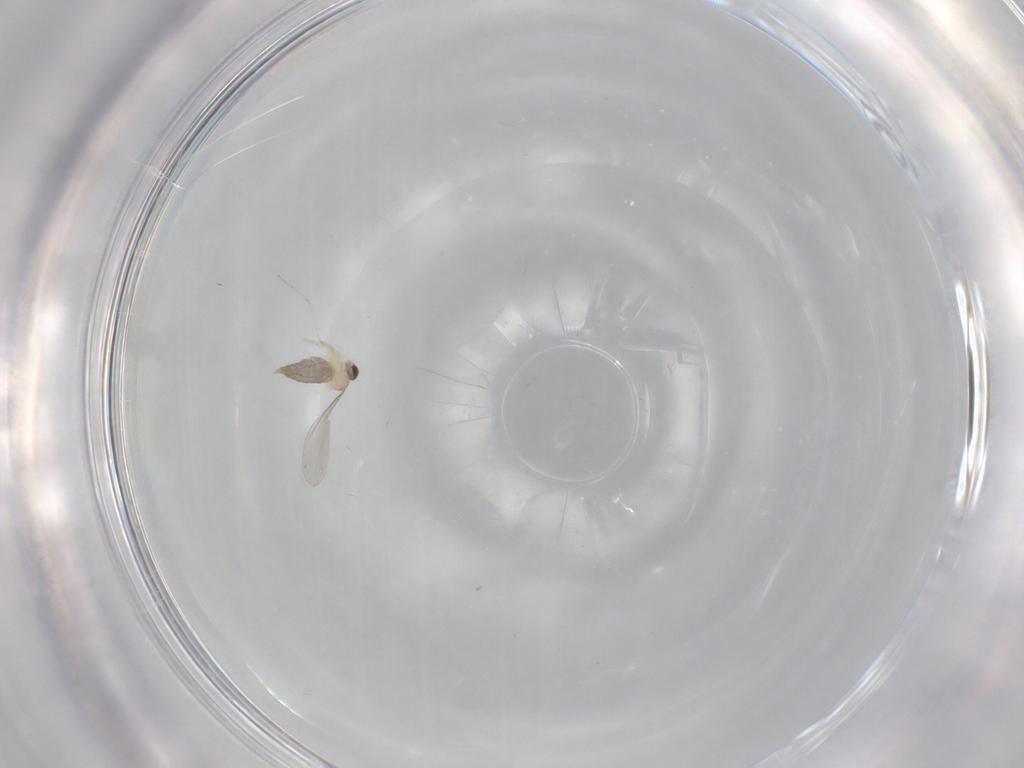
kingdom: Animalia
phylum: Arthropoda
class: Insecta
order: Diptera
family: Cecidomyiidae
